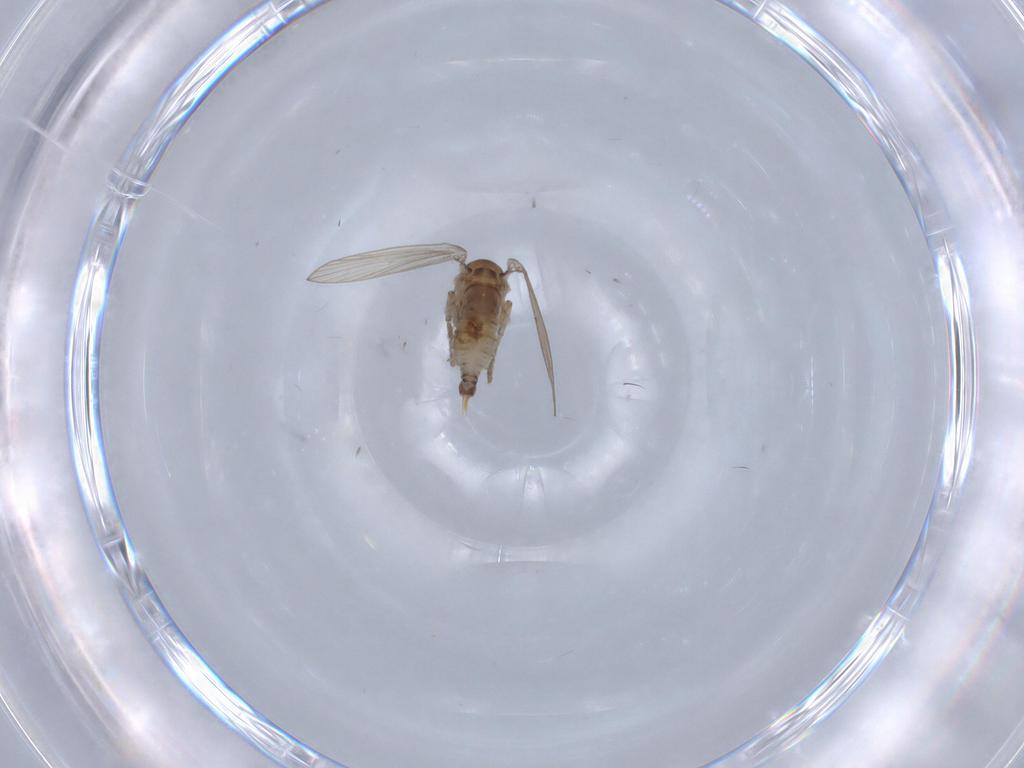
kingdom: Animalia
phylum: Arthropoda
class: Insecta
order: Diptera
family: Psychodidae
